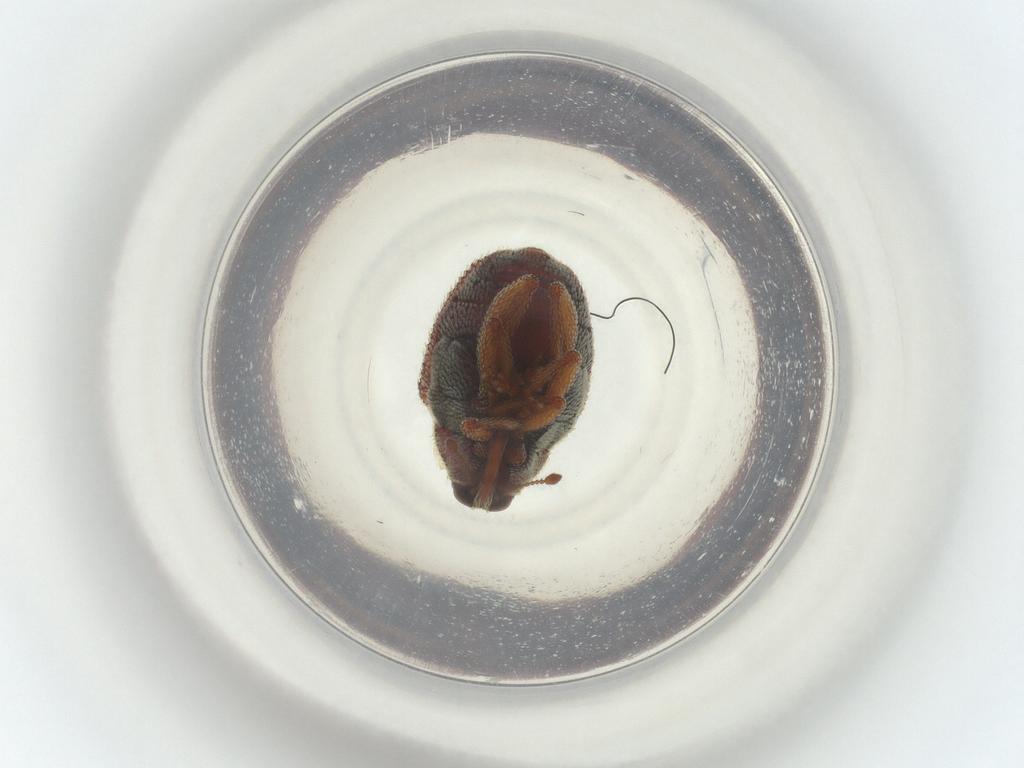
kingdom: Animalia
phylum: Arthropoda
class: Insecta
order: Coleoptera
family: Curculionidae
